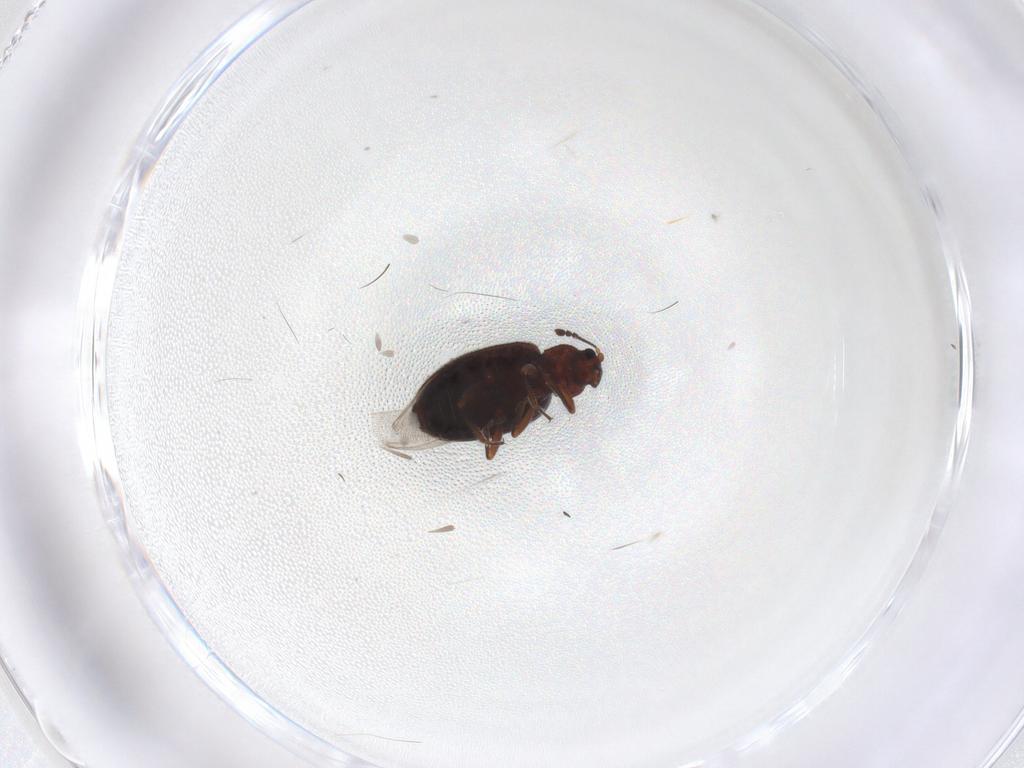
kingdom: Animalia
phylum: Arthropoda
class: Insecta
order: Coleoptera
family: Latridiidae
